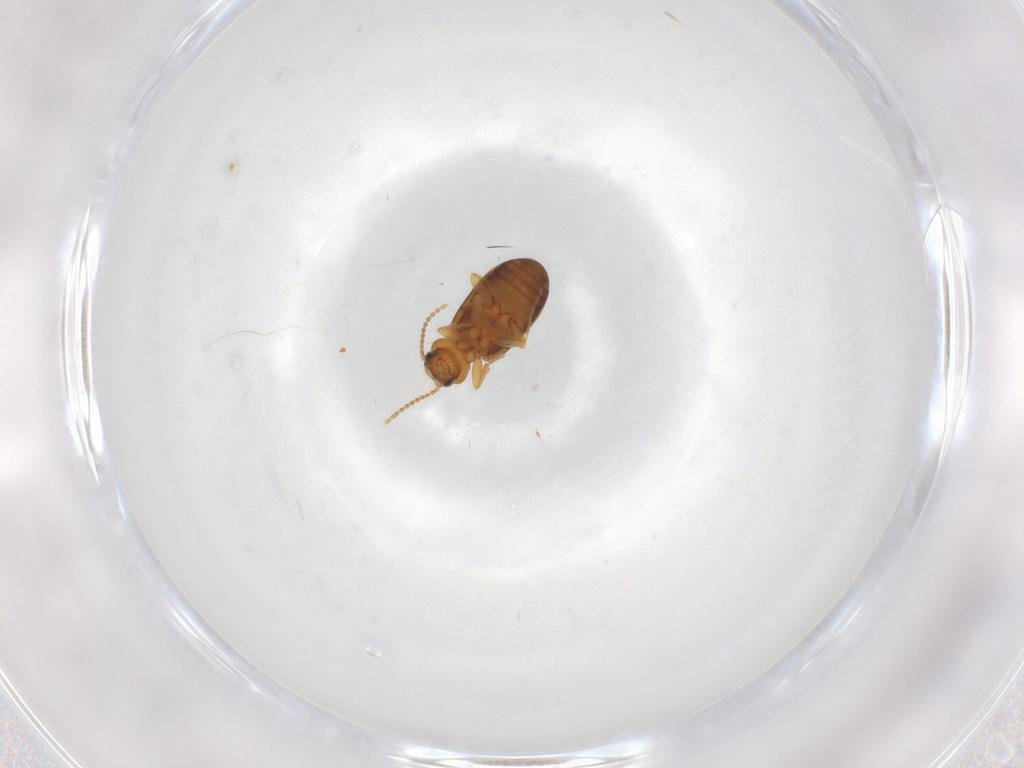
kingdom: Animalia
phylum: Arthropoda
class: Insecta
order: Coleoptera
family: Carabidae
